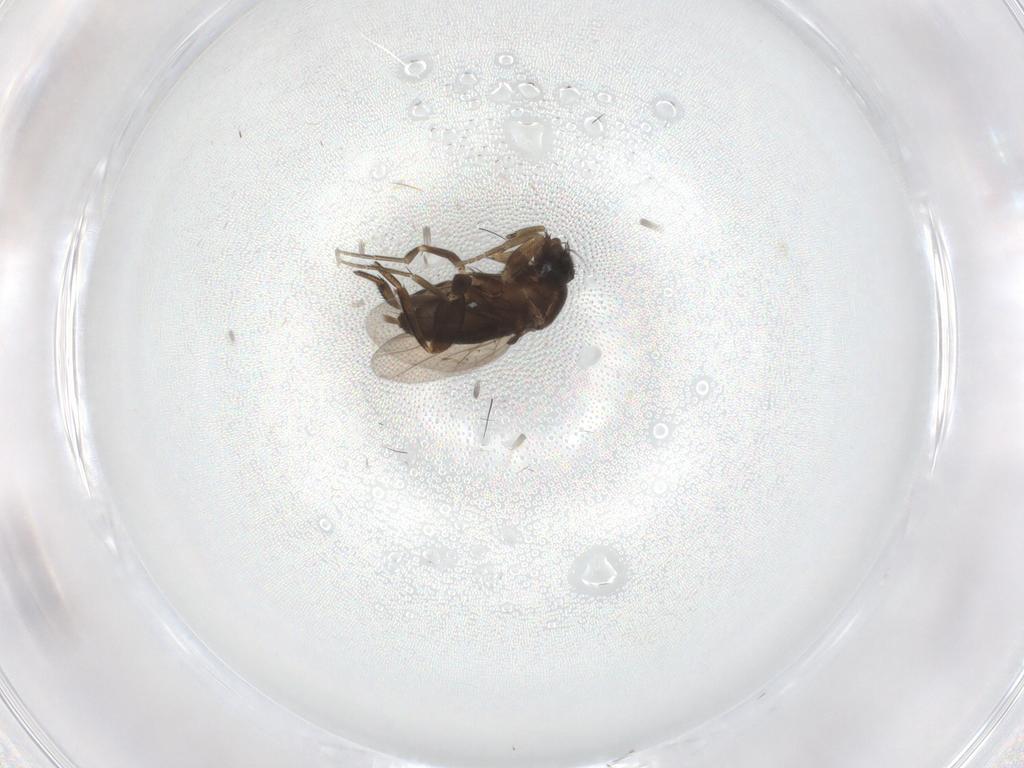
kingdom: Animalia
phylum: Arthropoda
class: Insecta
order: Diptera
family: Phoridae
